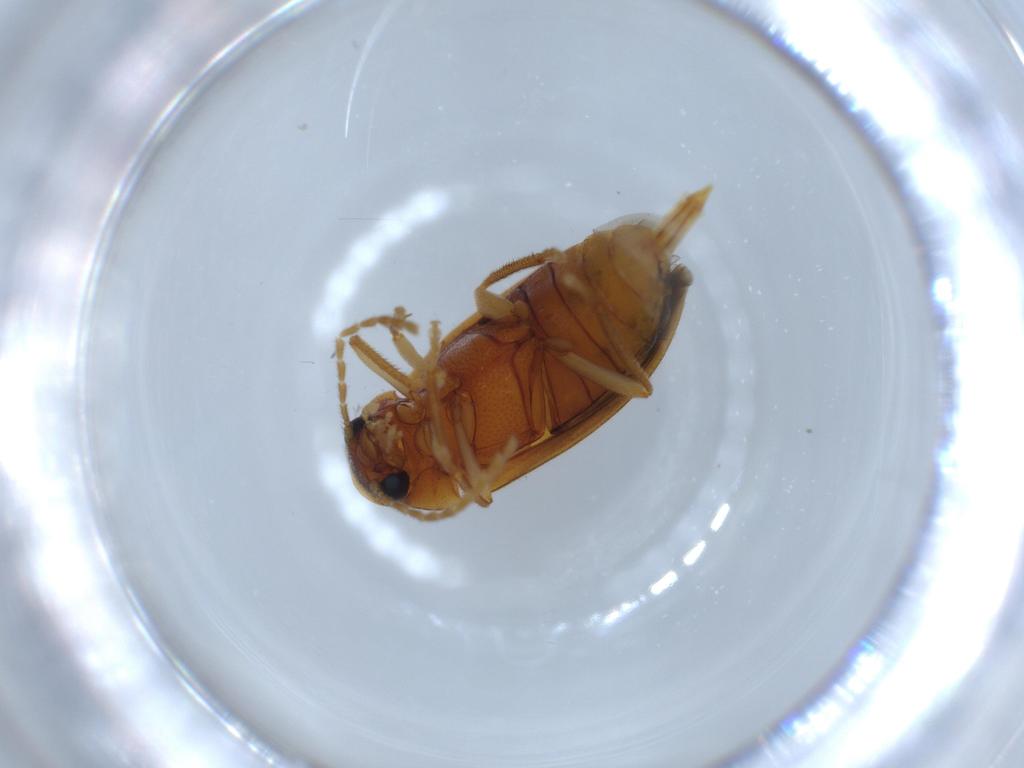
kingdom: Animalia
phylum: Arthropoda
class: Insecta
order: Coleoptera
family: Ptilodactylidae
